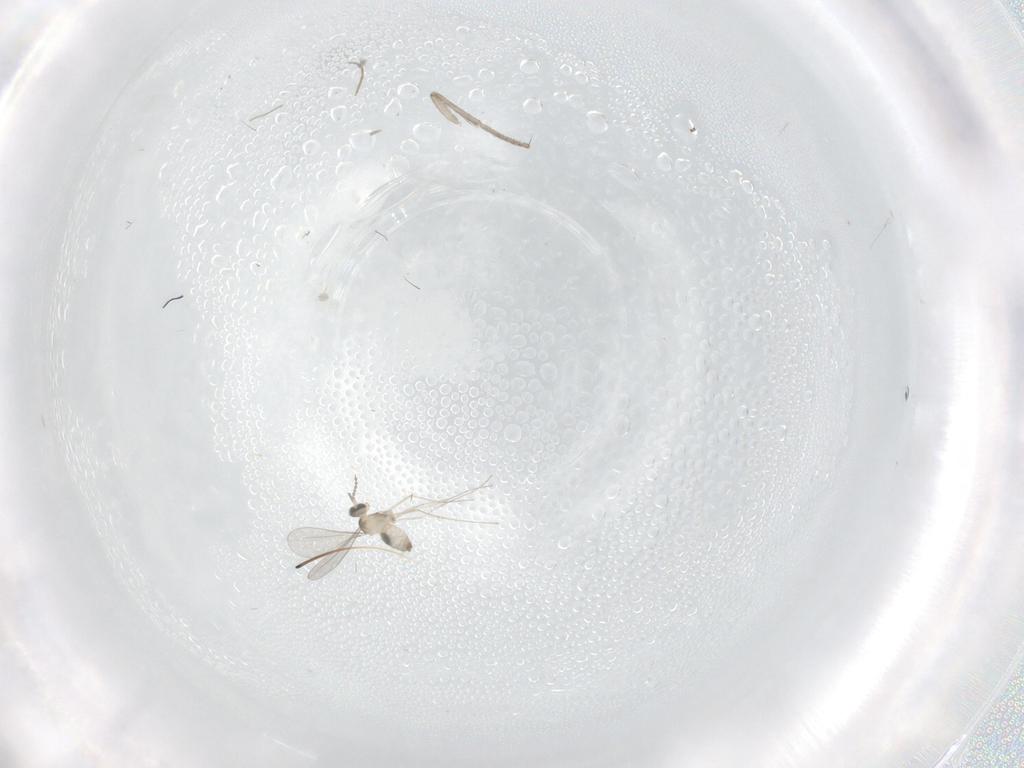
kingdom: Animalia
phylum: Arthropoda
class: Insecta
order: Diptera
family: Cecidomyiidae
